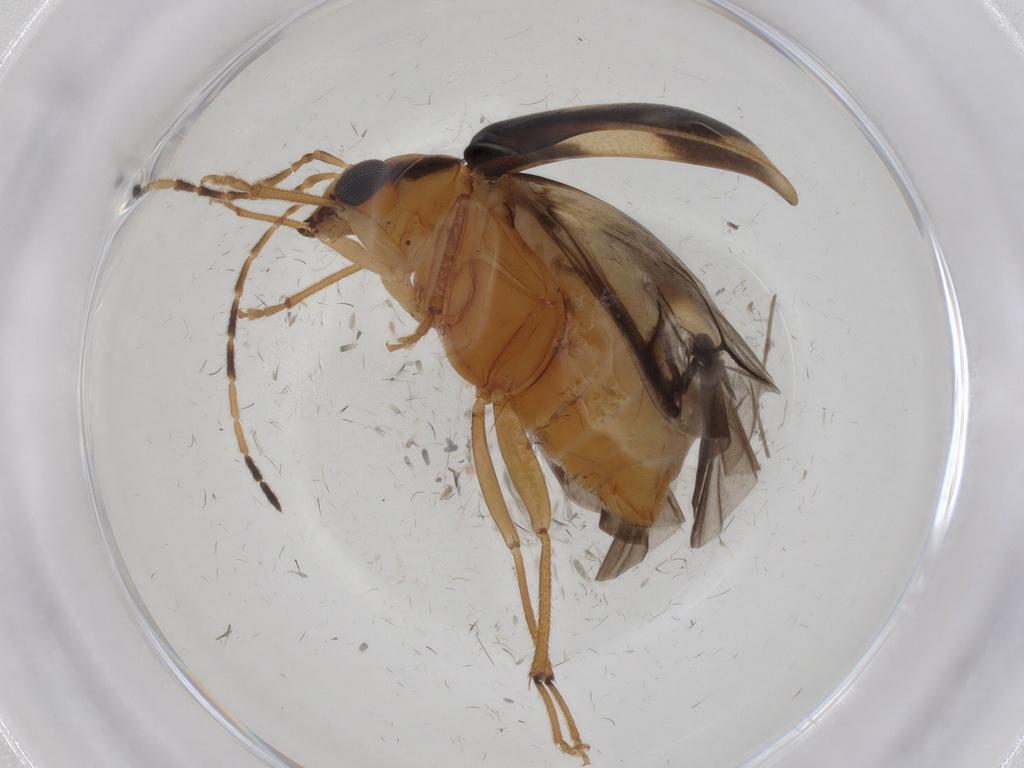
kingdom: Animalia
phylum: Arthropoda
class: Insecta
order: Coleoptera
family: Chrysomelidae
